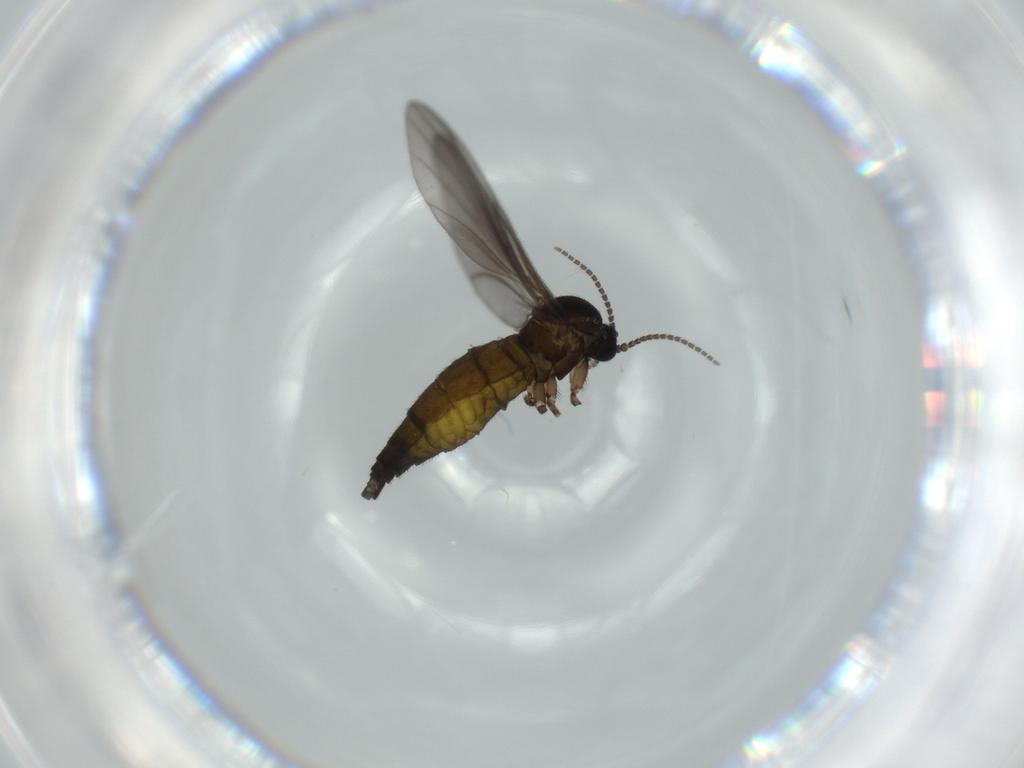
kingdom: Animalia
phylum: Arthropoda
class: Insecta
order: Diptera
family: Sciaridae
